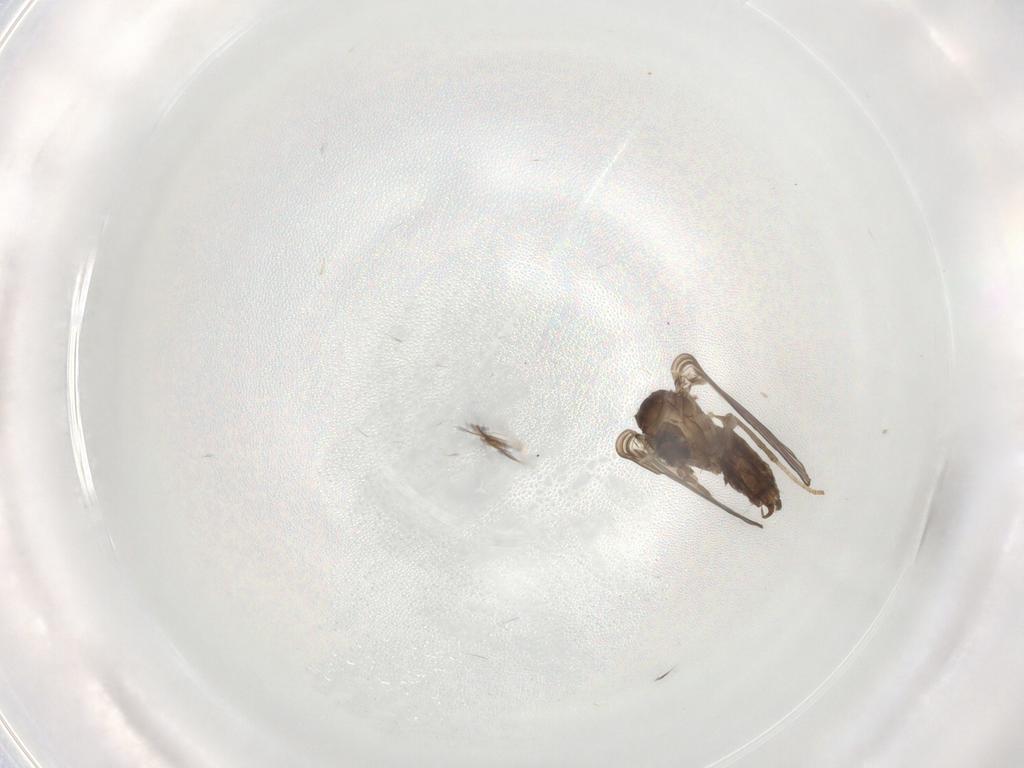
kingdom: Animalia
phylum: Arthropoda
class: Insecta
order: Diptera
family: Psychodidae
